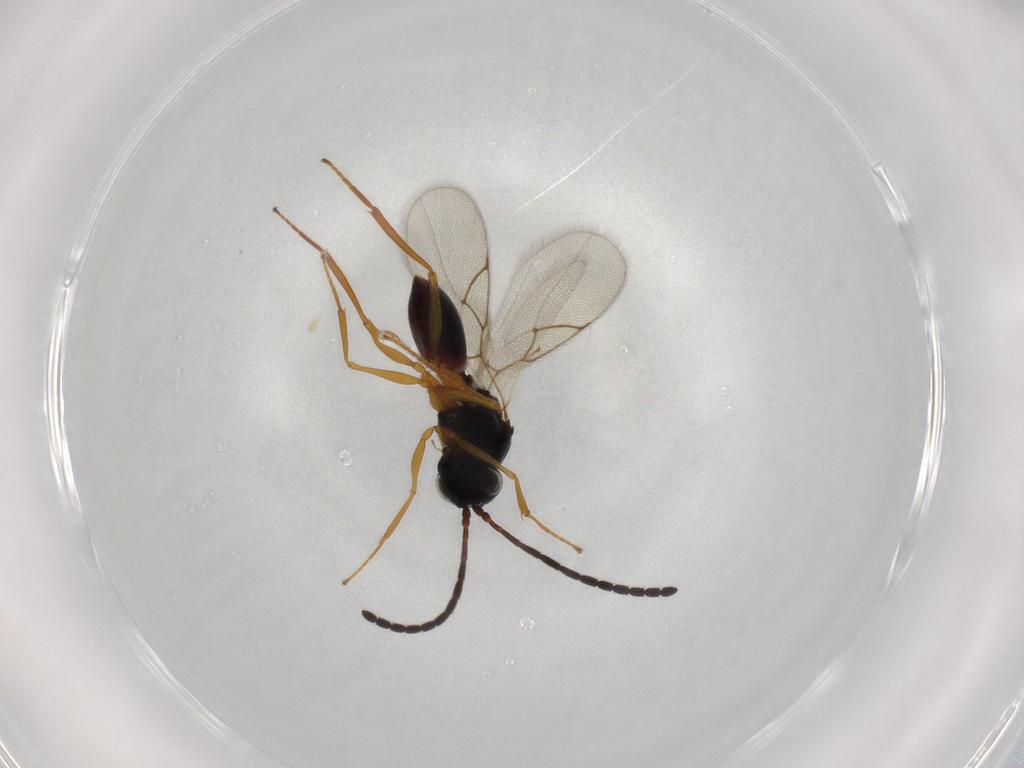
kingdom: Animalia
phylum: Arthropoda
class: Insecta
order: Hymenoptera
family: Figitidae
